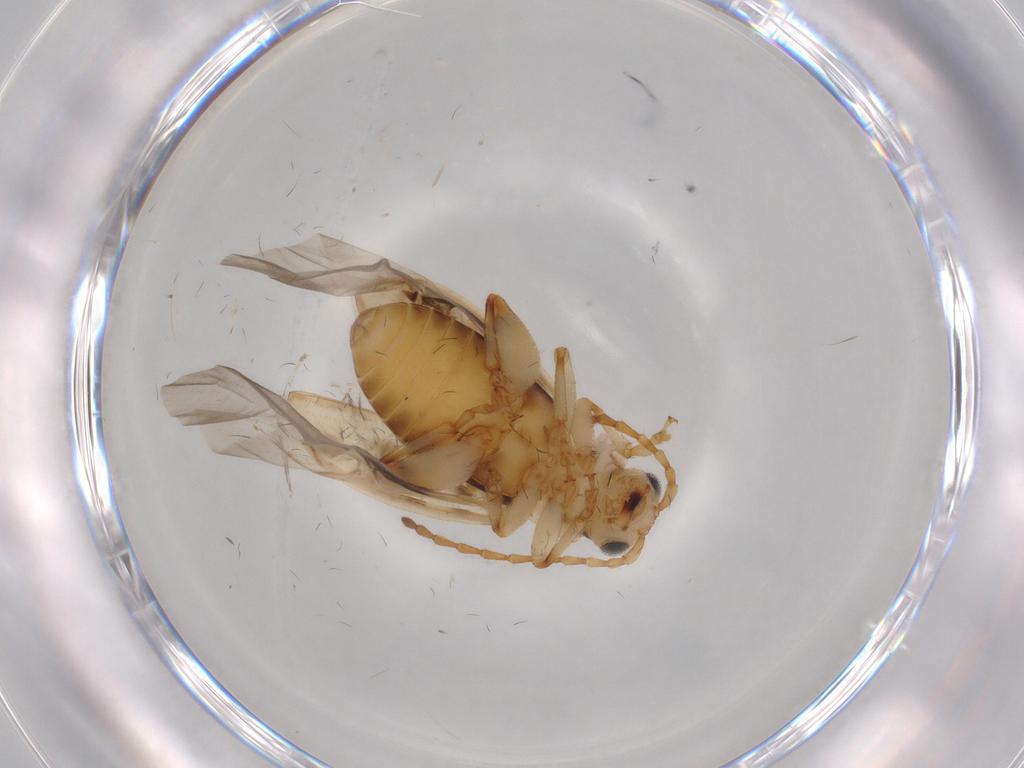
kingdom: Animalia
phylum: Arthropoda
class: Insecta
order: Coleoptera
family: Chrysomelidae
